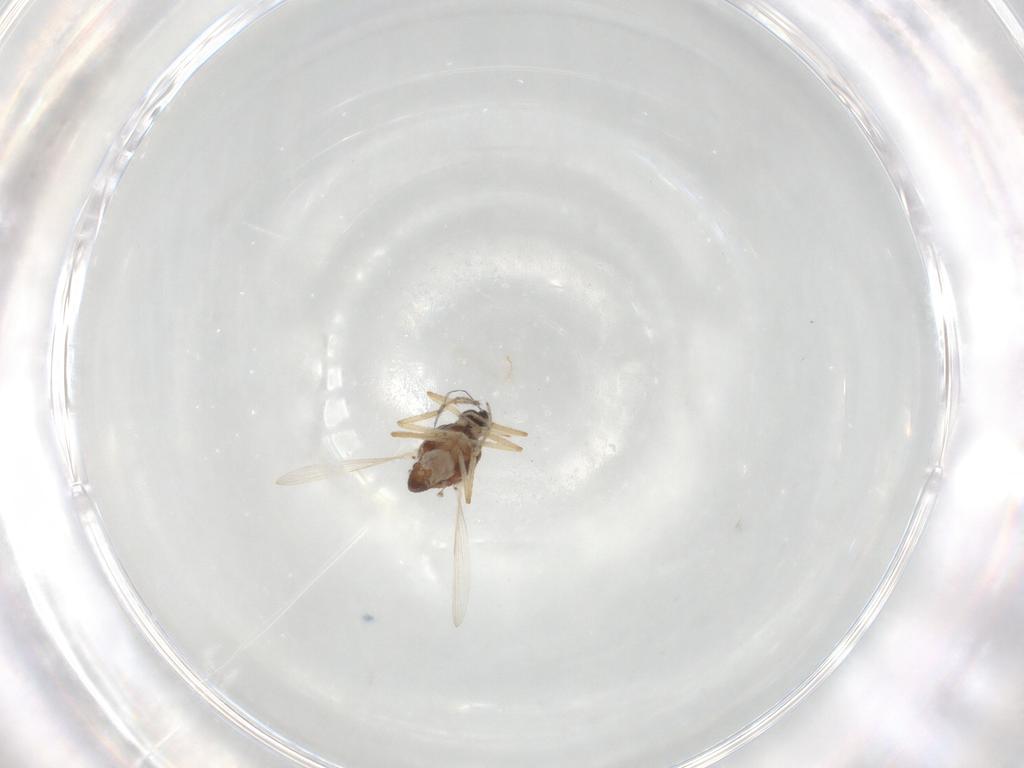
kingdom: Animalia
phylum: Arthropoda
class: Insecta
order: Diptera
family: Ceratopogonidae
